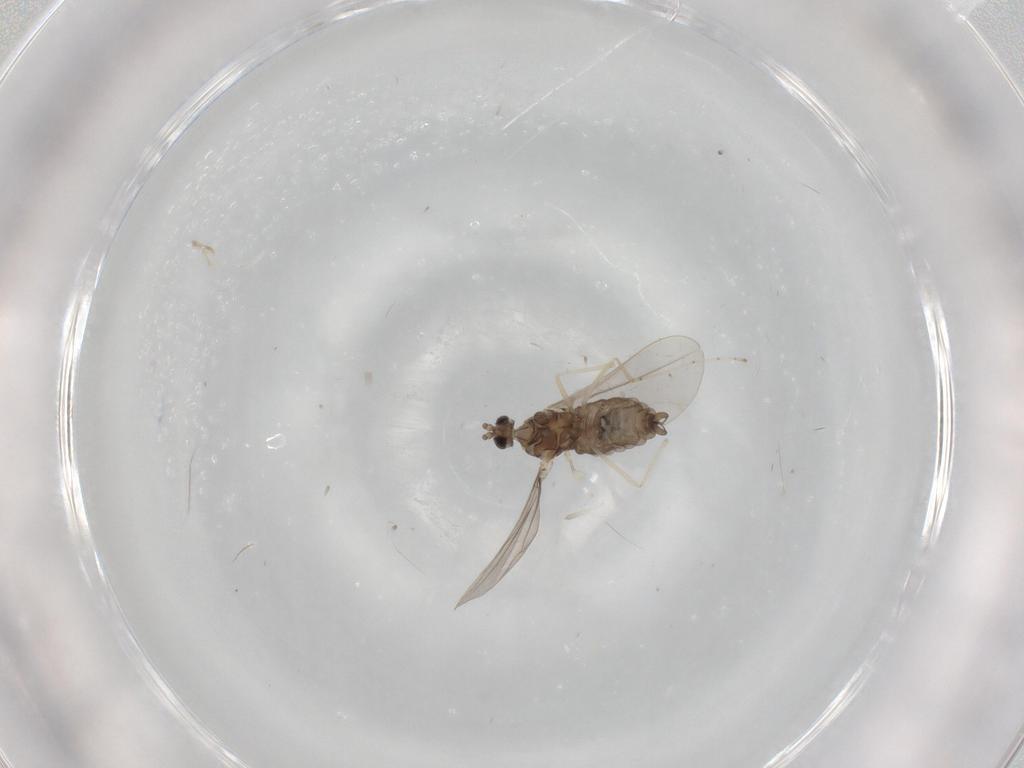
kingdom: Animalia
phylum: Arthropoda
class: Insecta
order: Diptera
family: Cecidomyiidae
